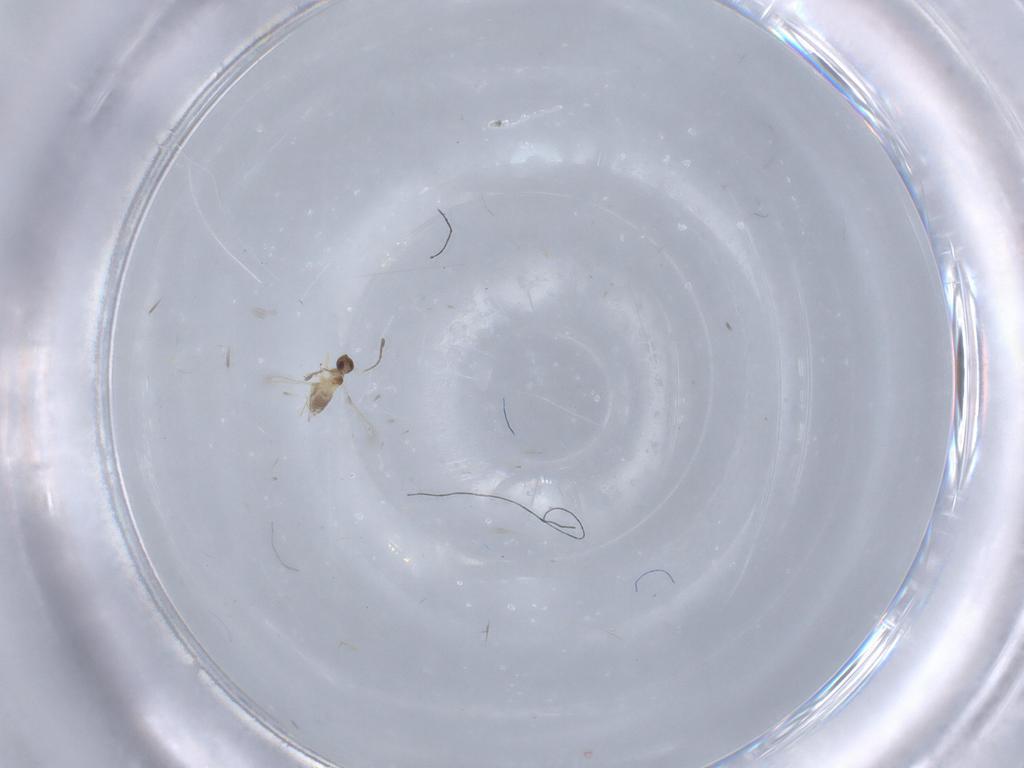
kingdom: Animalia
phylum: Arthropoda
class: Insecta
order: Hymenoptera
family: Braconidae
